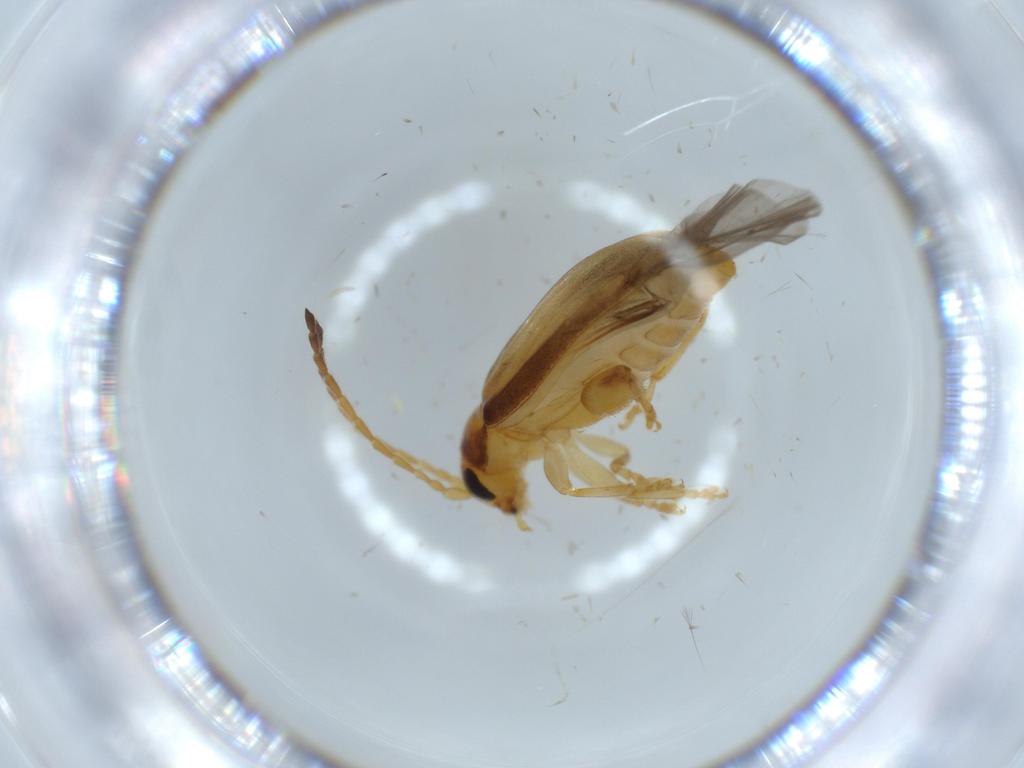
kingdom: Animalia
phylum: Arthropoda
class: Insecta
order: Coleoptera
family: Chrysomelidae
